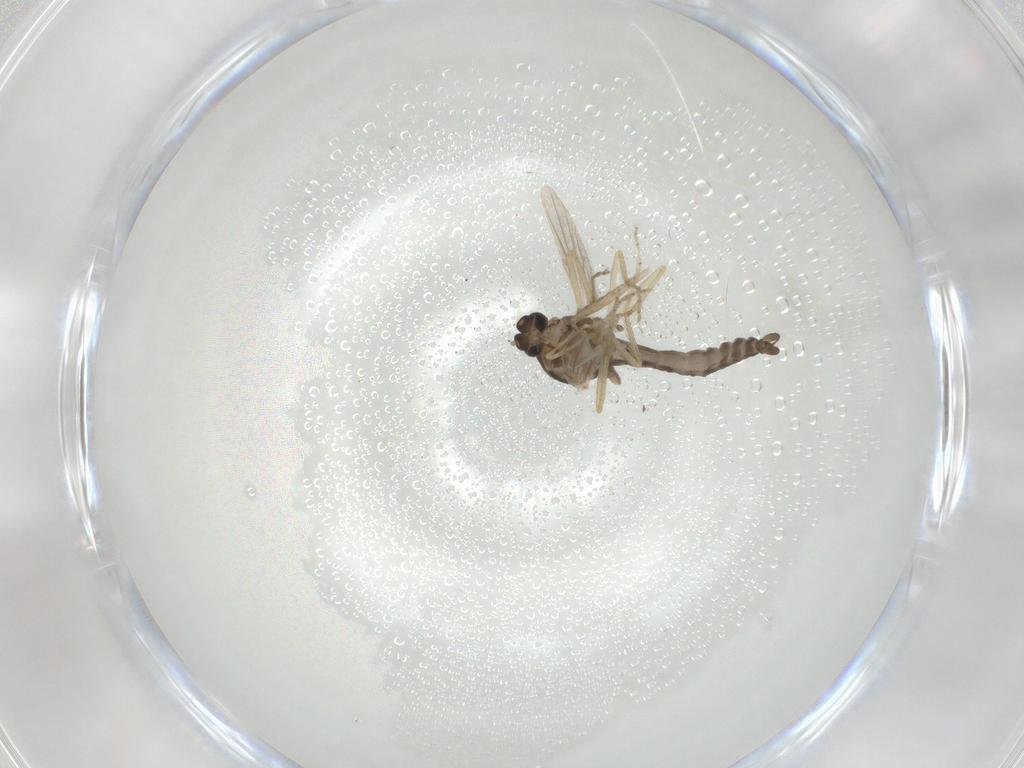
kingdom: Animalia
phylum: Arthropoda
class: Insecta
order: Diptera
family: Ceratopogonidae
